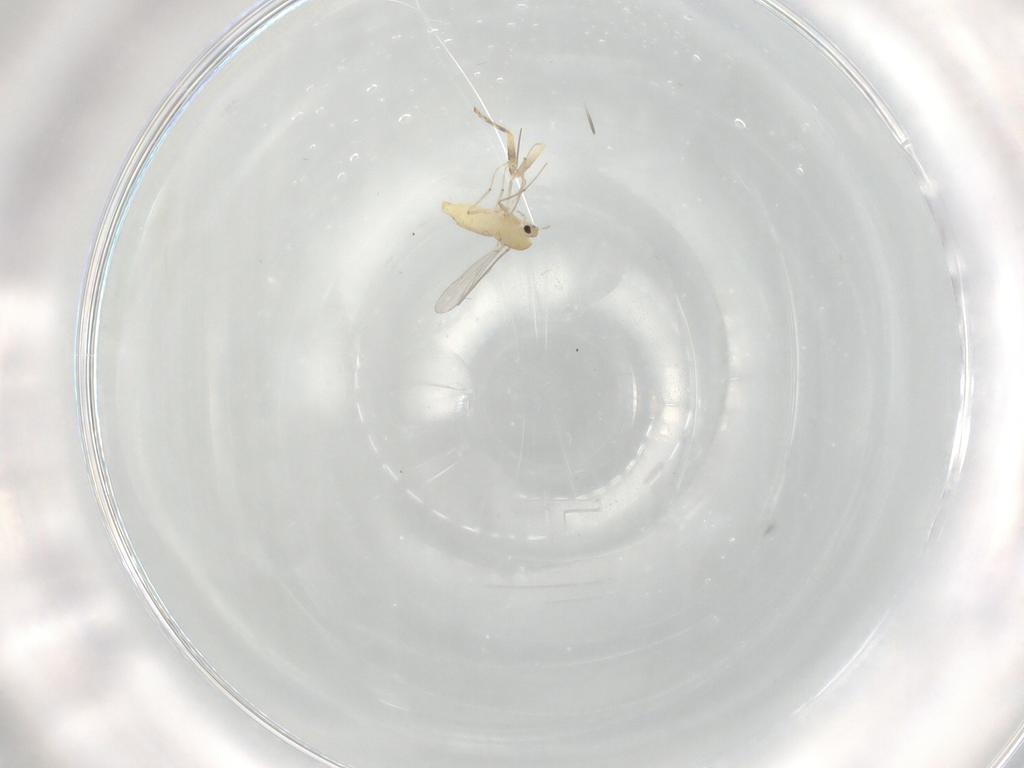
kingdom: Animalia
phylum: Arthropoda
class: Insecta
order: Diptera
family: Chironomidae
